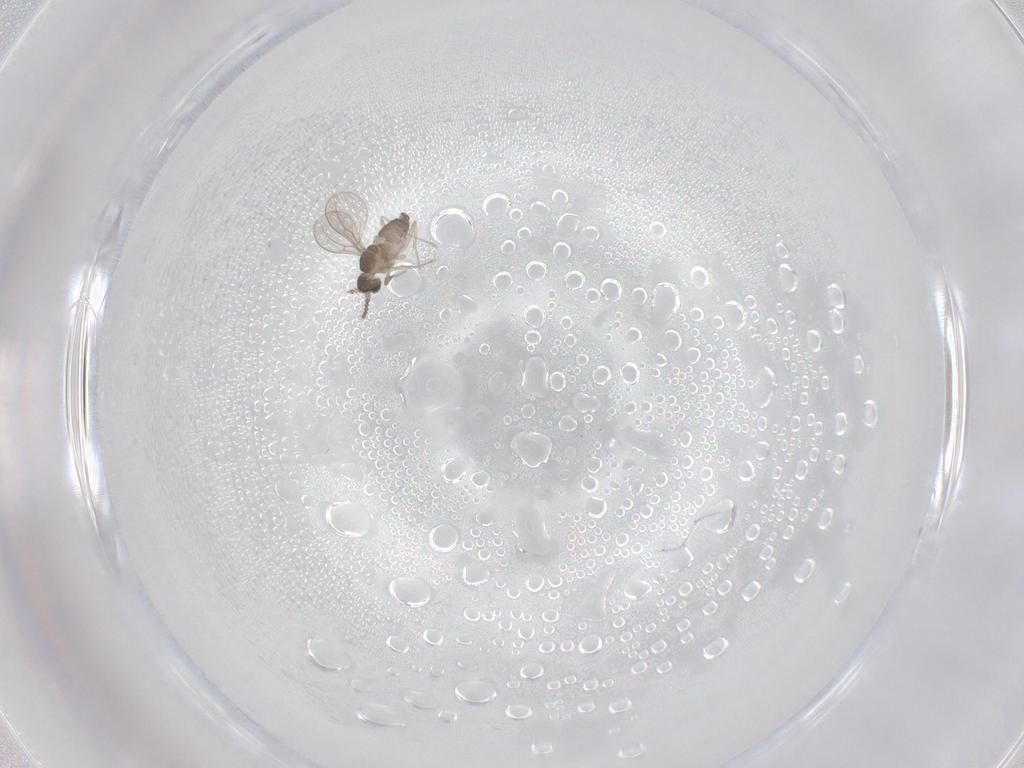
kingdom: Animalia
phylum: Arthropoda
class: Insecta
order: Diptera
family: Cecidomyiidae
